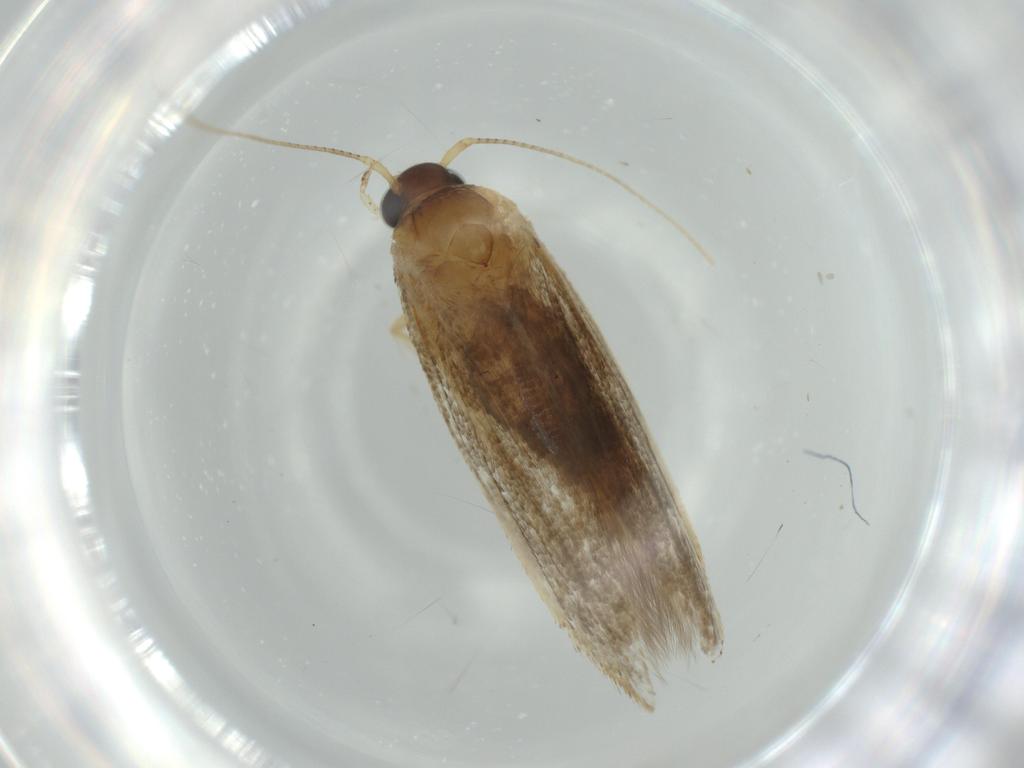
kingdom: Animalia
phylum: Arthropoda
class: Insecta
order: Lepidoptera
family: Coleophoridae
